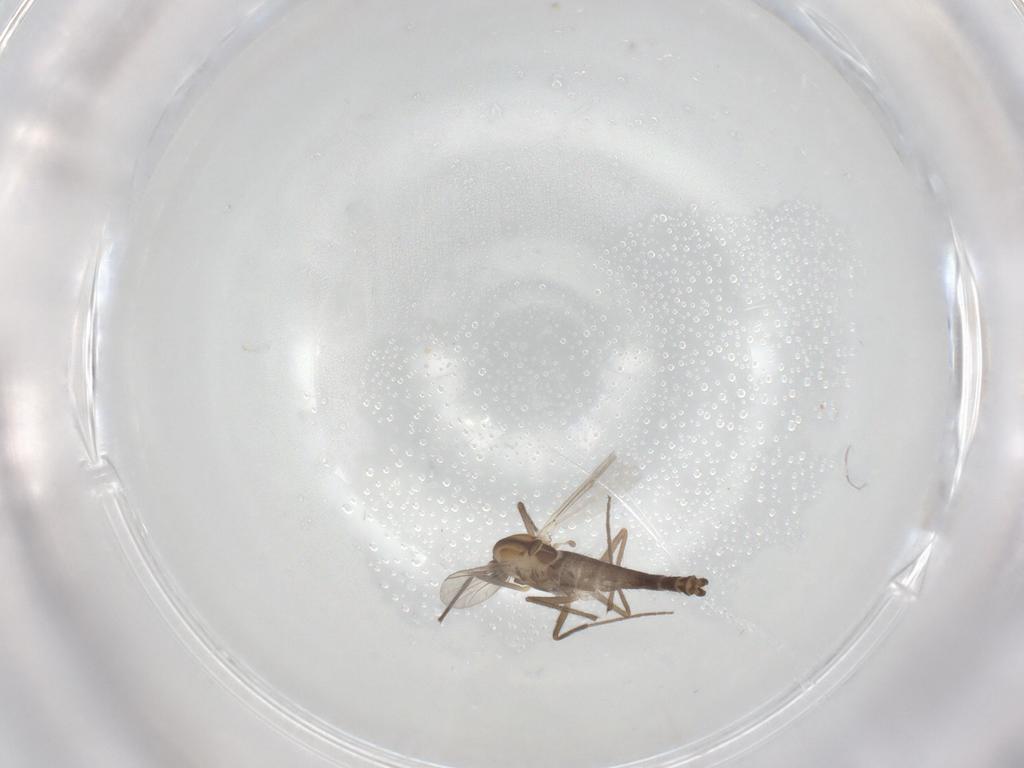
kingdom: Animalia
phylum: Arthropoda
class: Insecta
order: Diptera
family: Chironomidae
